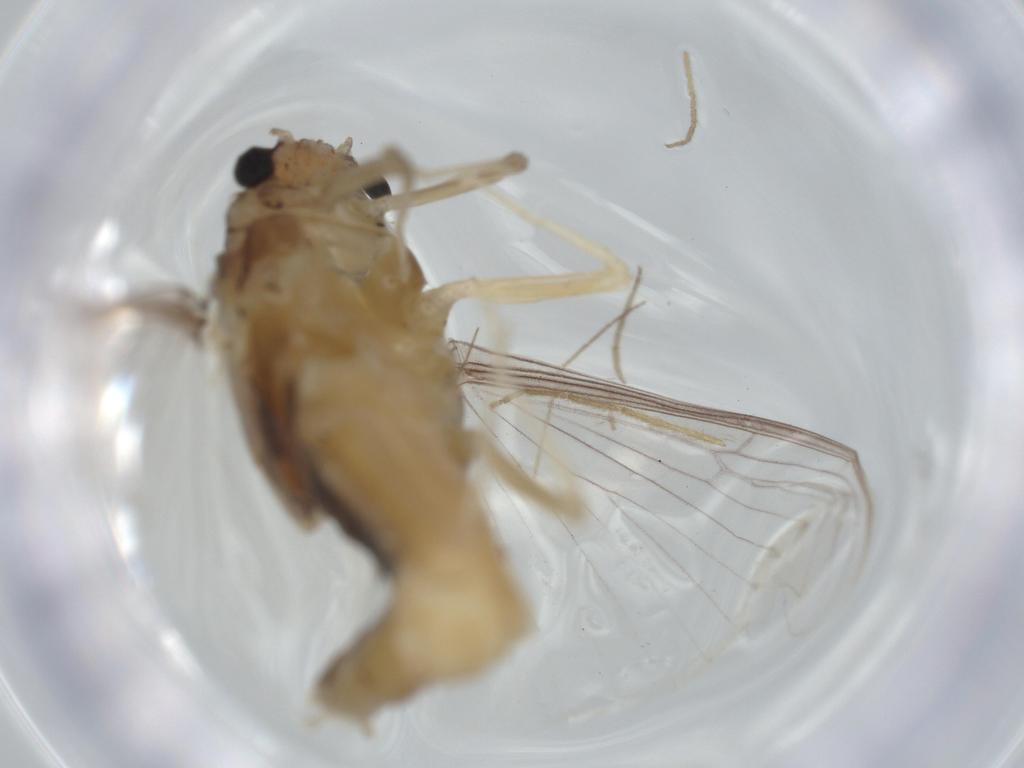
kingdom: Animalia
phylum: Arthropoda
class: Insecta
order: Ephemeroptera
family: Caenidae
